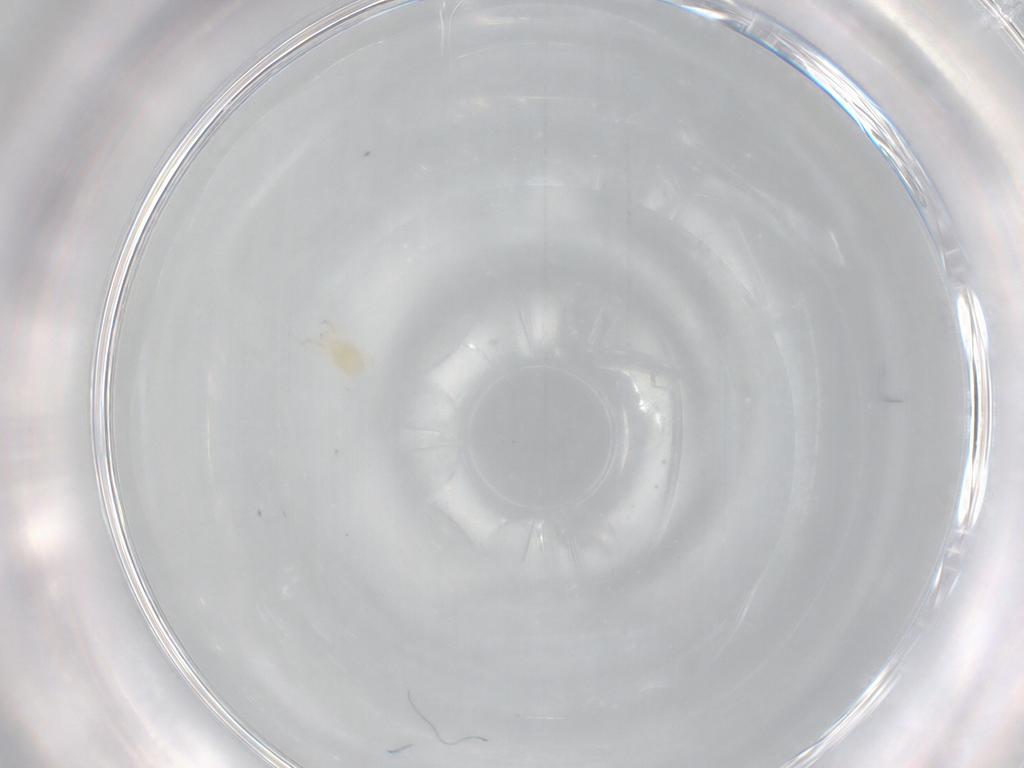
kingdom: Animalia
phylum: Arthropoda
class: Arachnida
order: Mesostigmata
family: Phytoseiidae
